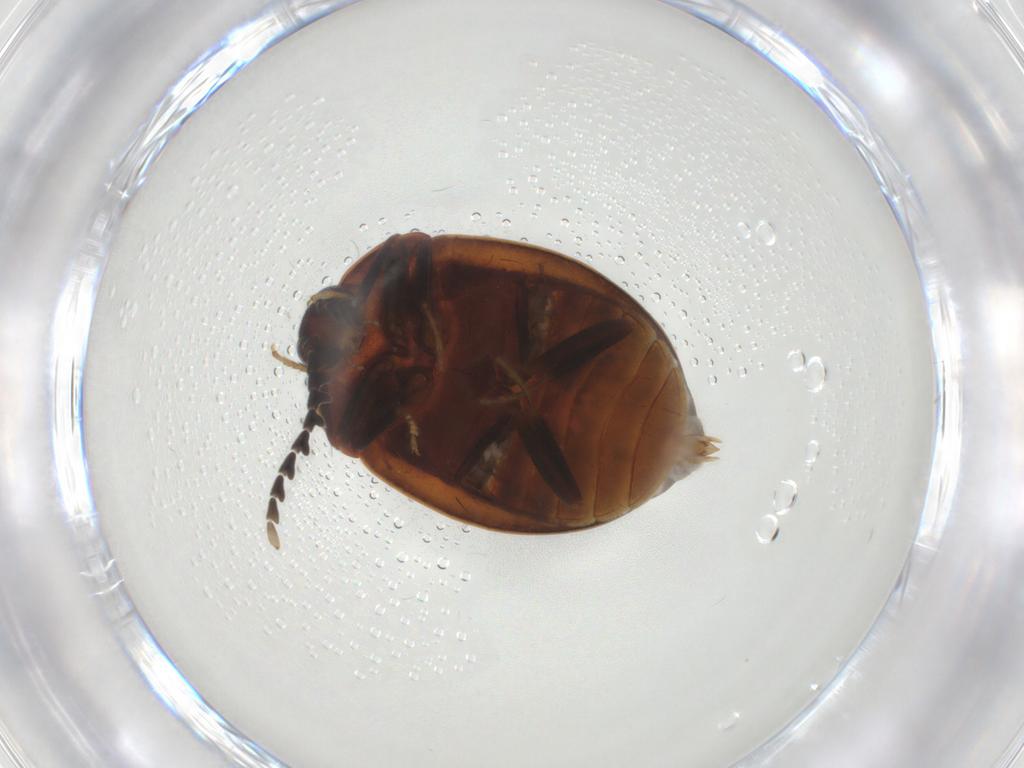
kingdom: Animalia
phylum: Arthropoda
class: Insecta
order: Coleoptera
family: Psephenidae
